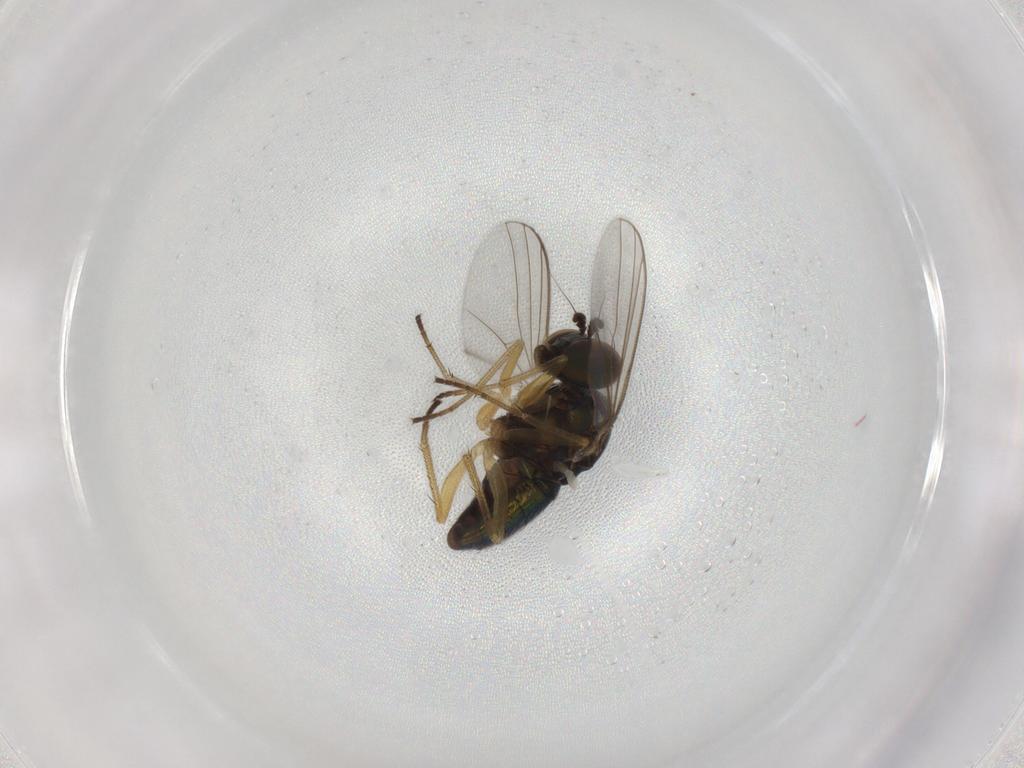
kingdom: Animalia
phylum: Arthropoda
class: Insecta
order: Diptera
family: Dolichopodidae
